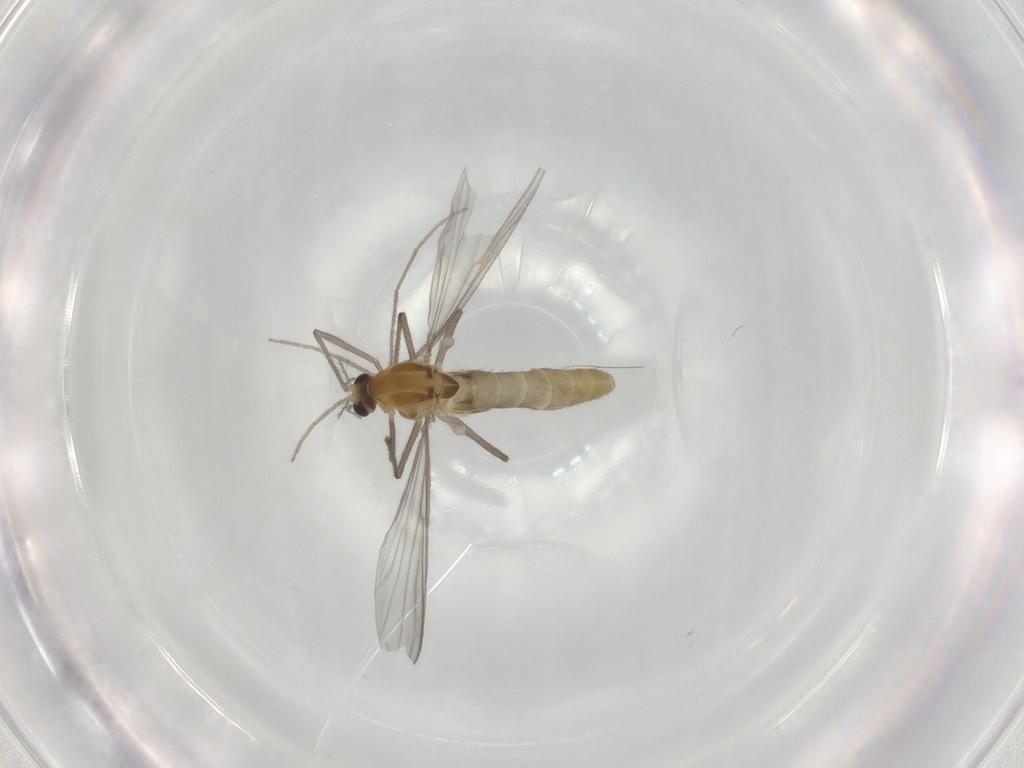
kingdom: Animalia
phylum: Arthropoda
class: Insecta
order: Diptera
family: Chironomidae
